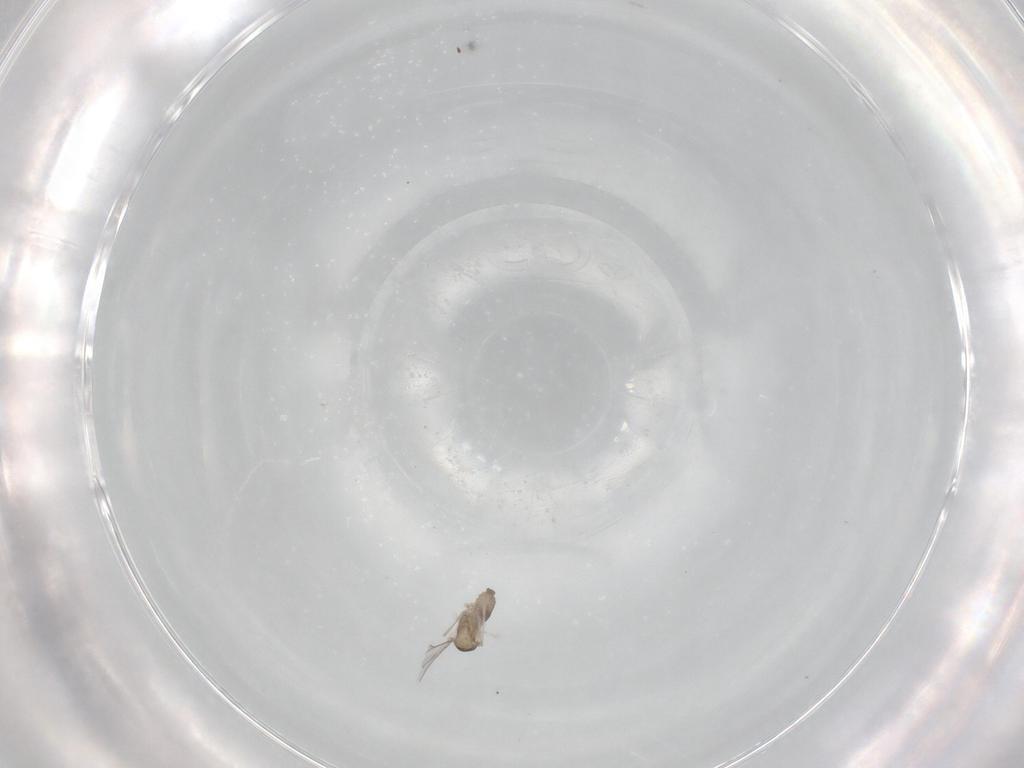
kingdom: Animalia
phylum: Arthropoda
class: Insecta
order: Diptera
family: Cecidomyiidae
